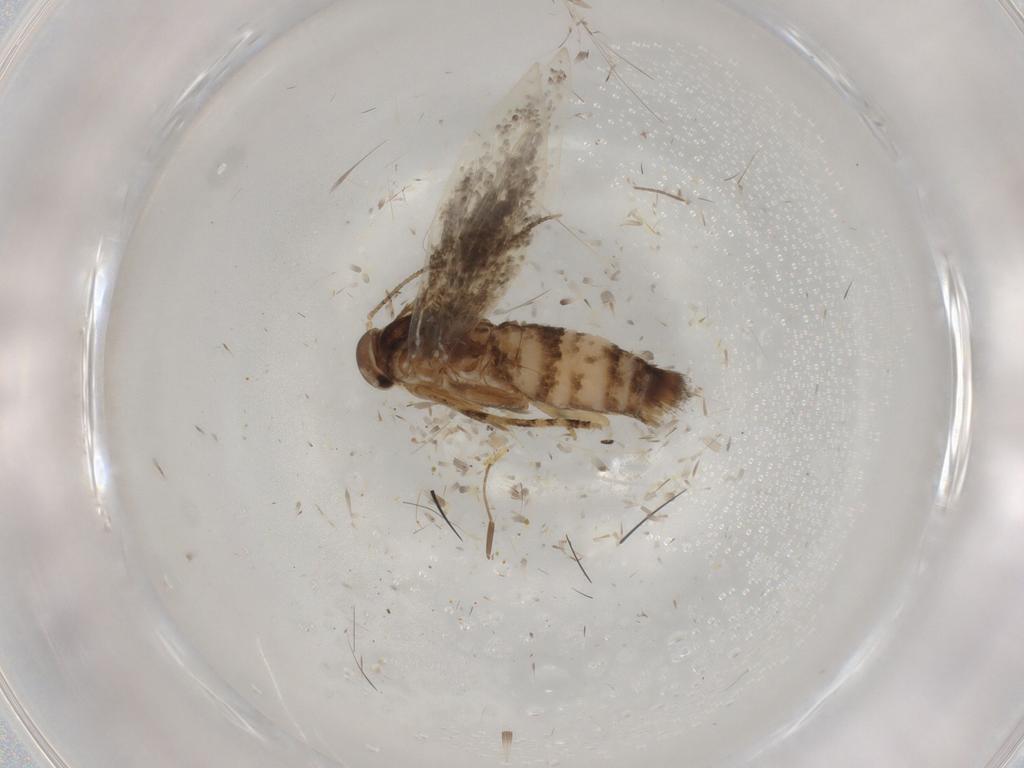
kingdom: Animalia
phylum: Arthropoda
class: Insecta
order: Lepidoptera
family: Elachistidae
